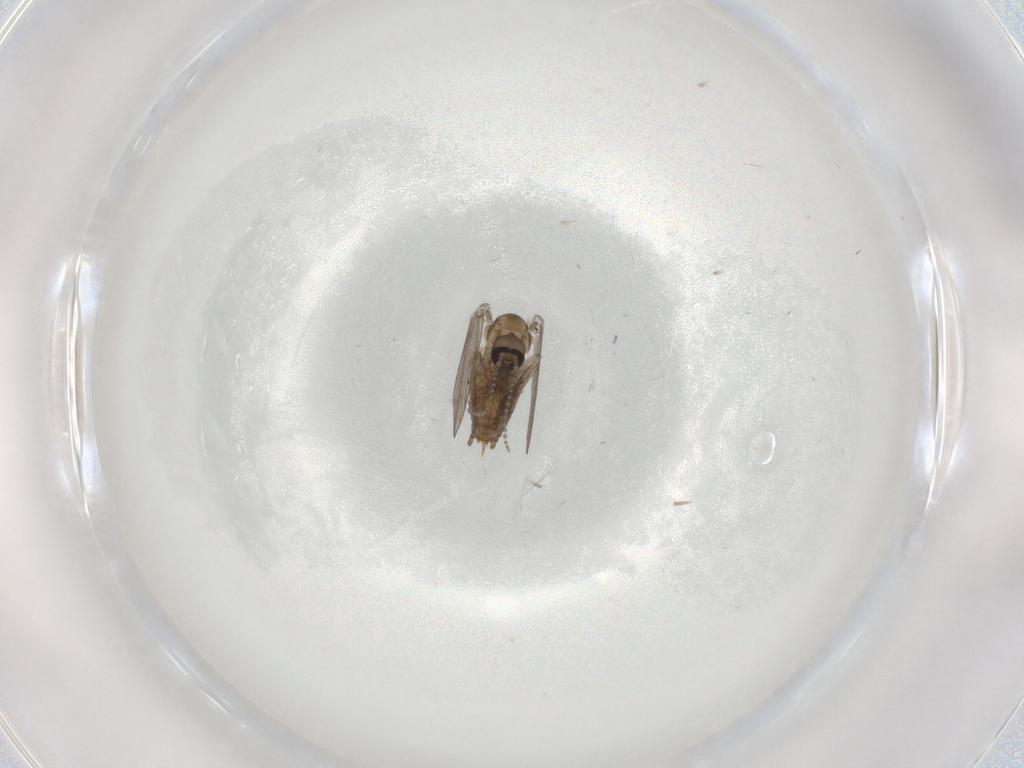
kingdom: Animalia
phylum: Arthropoda
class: Insecta
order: Diptera
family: Psychodidae
